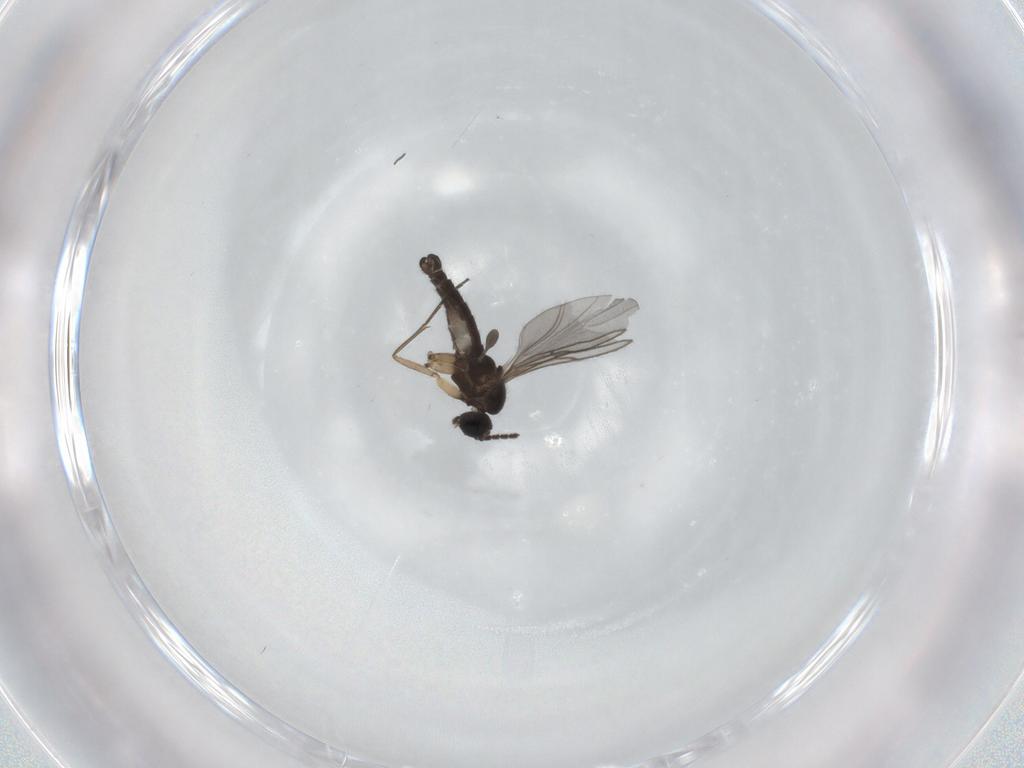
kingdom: Animalia
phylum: Arthropoda
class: Insecta
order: Diptera
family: Sciaridae
